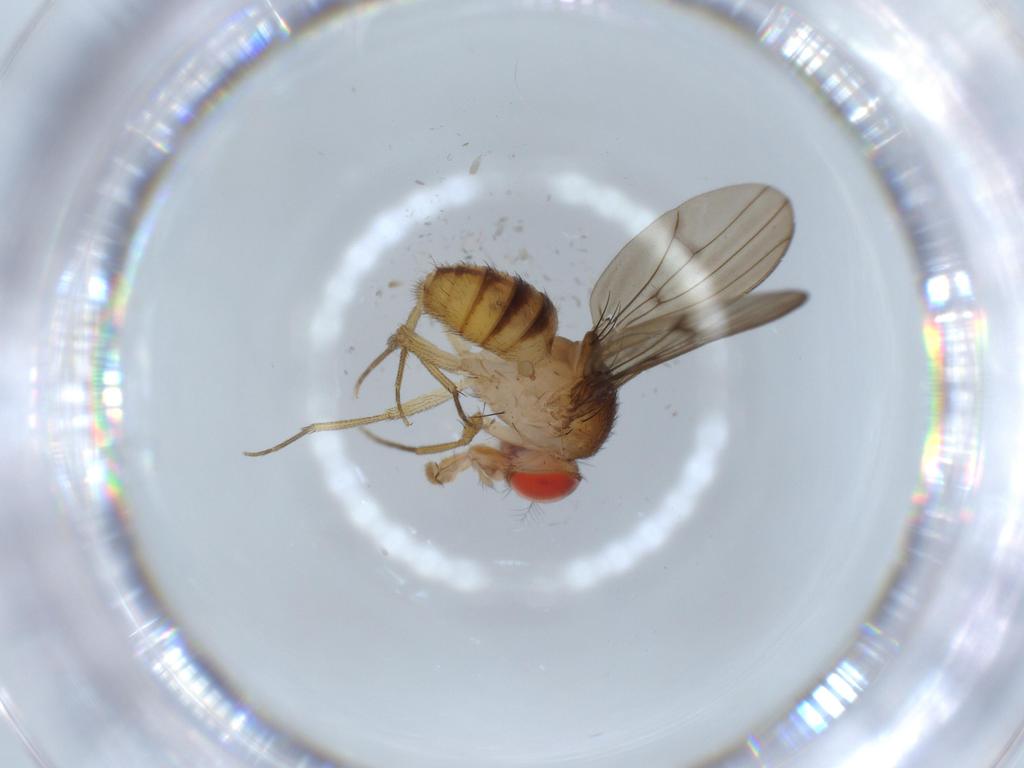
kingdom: Animalia
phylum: Arthropoda
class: Insecta
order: Diptera
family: Drosophilidae
